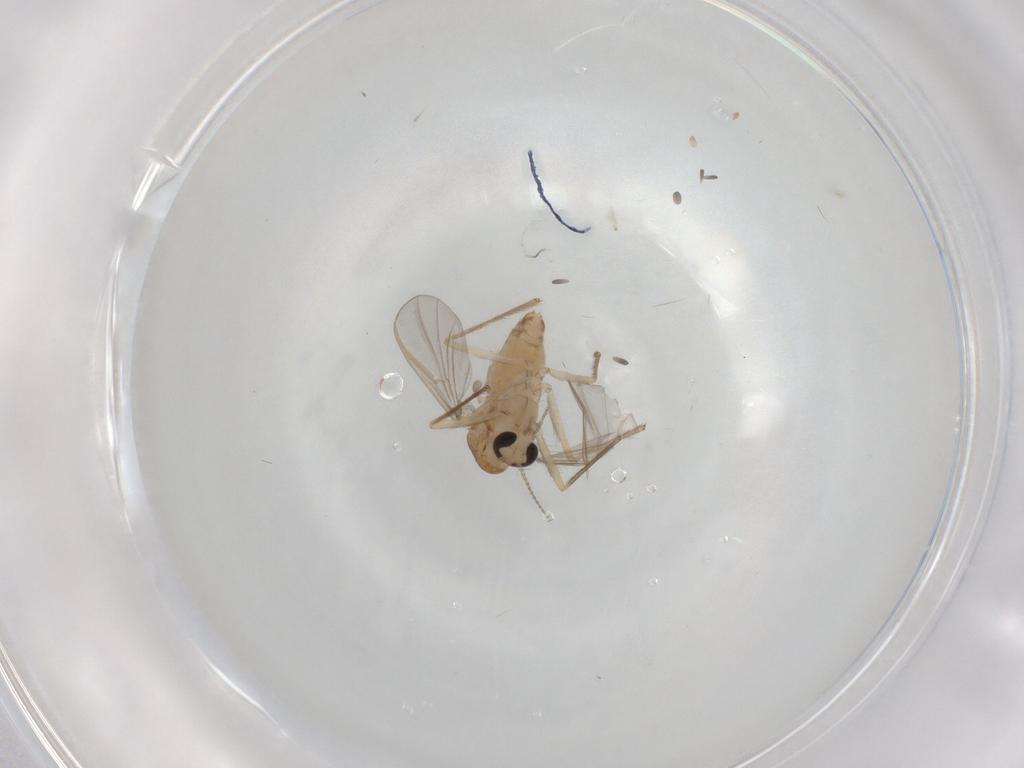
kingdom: Animalia
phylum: Arthropoda
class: Insecta
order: Diptera
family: Chironomidae
